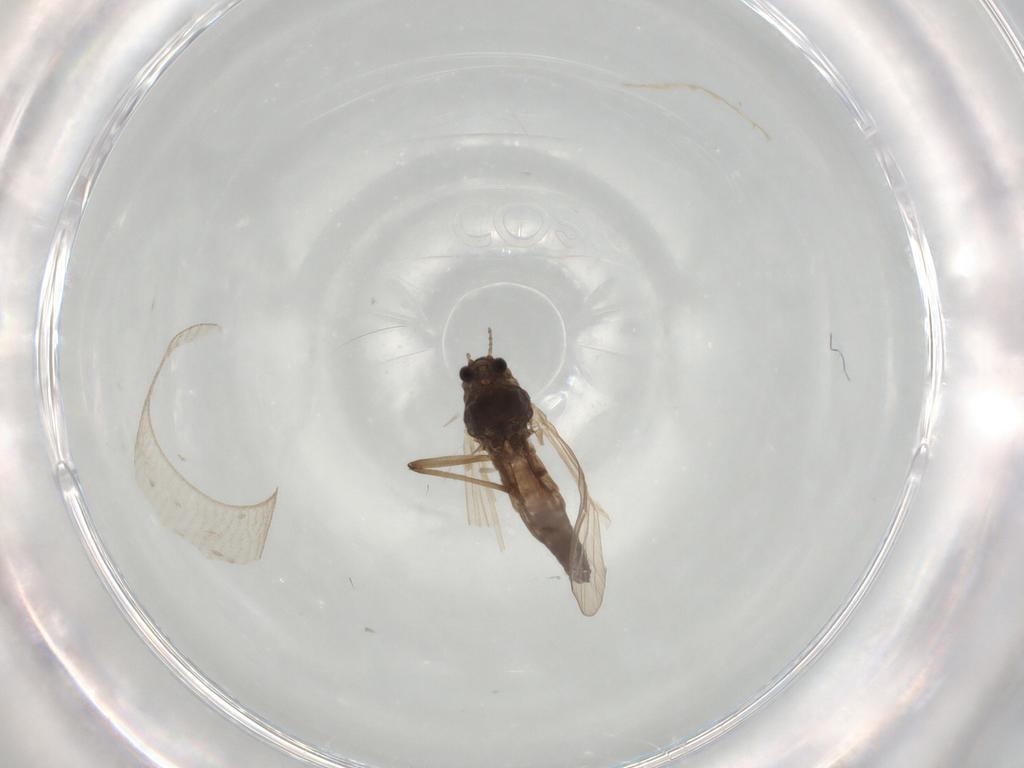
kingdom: Animalia
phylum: Arthropoda
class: Insecta
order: Diptera
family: Chironomidae
